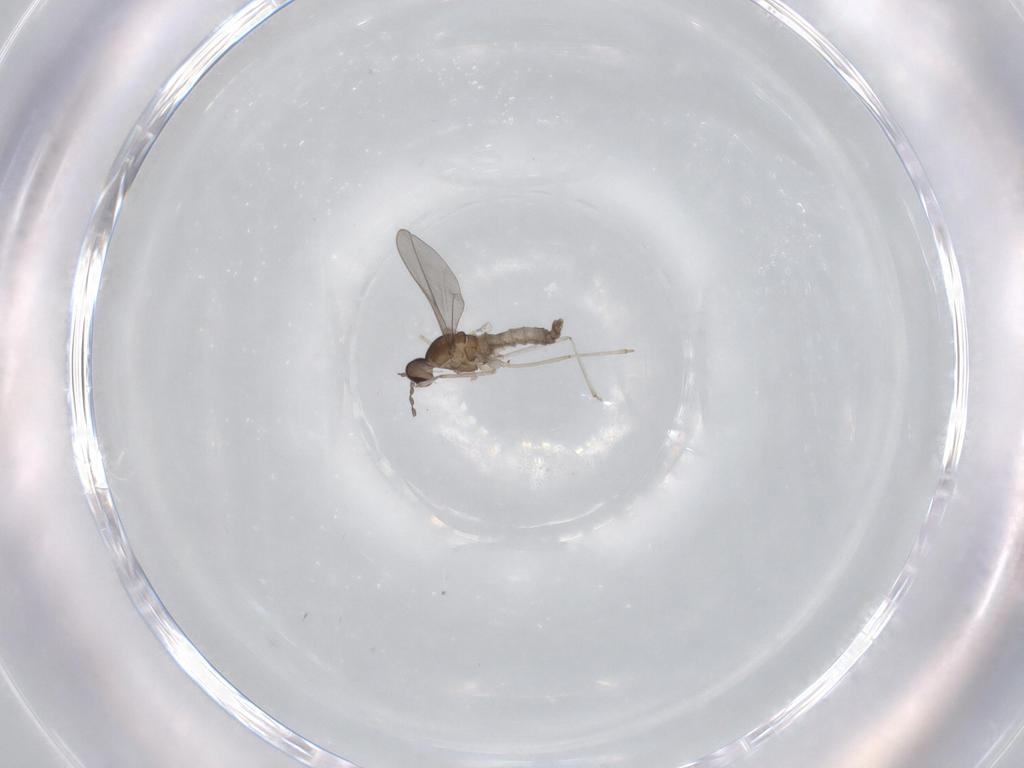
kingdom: Animalia
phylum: Arthropoda
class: Insecta
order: Diptera
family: Cecidomyiidae
